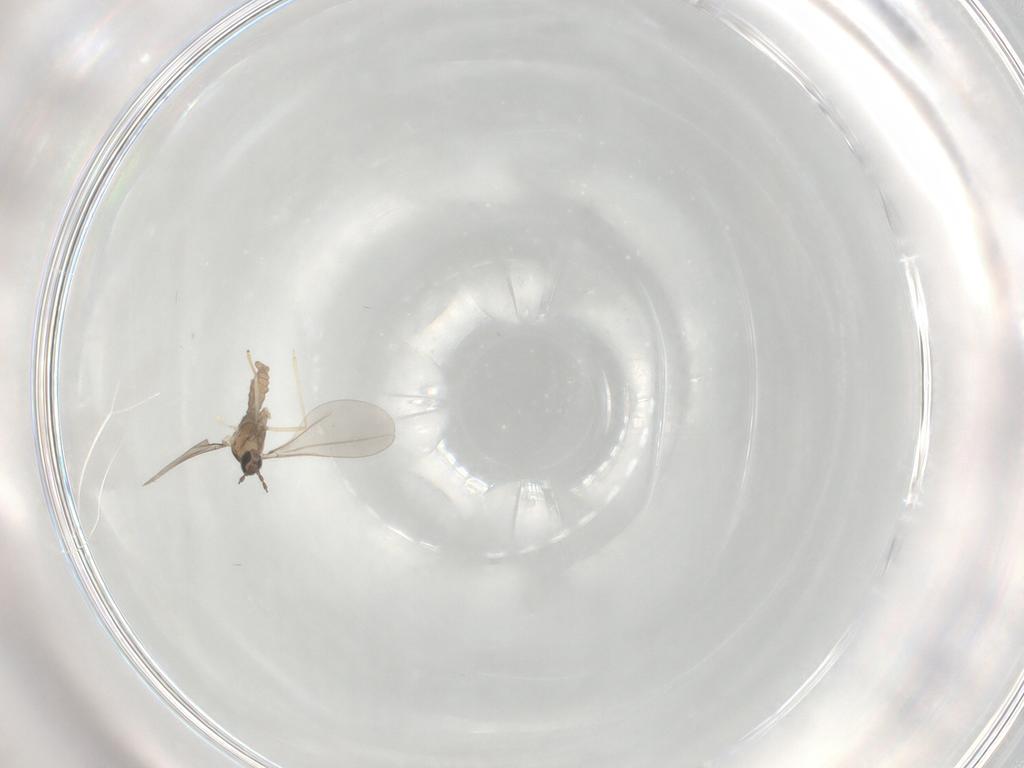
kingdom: Animalia
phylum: Arthropoda
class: Insecta
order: Diptera
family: Muscidae
